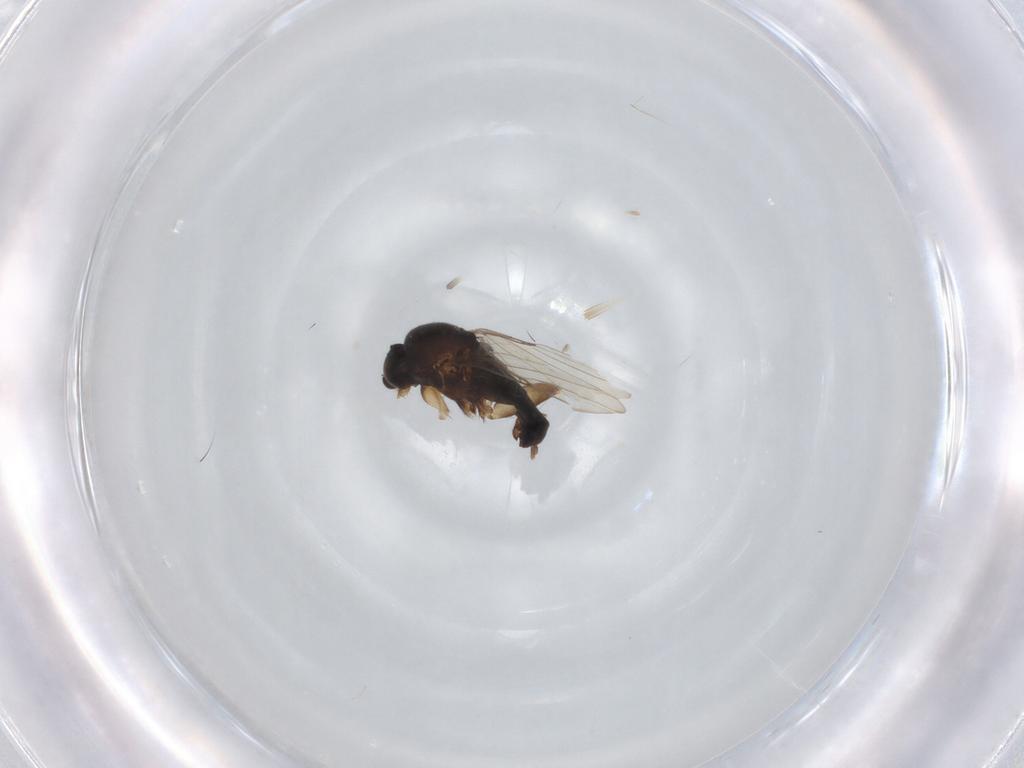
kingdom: Animalia
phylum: Arthropoda
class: Insecta
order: Diptera
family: Phoridae
